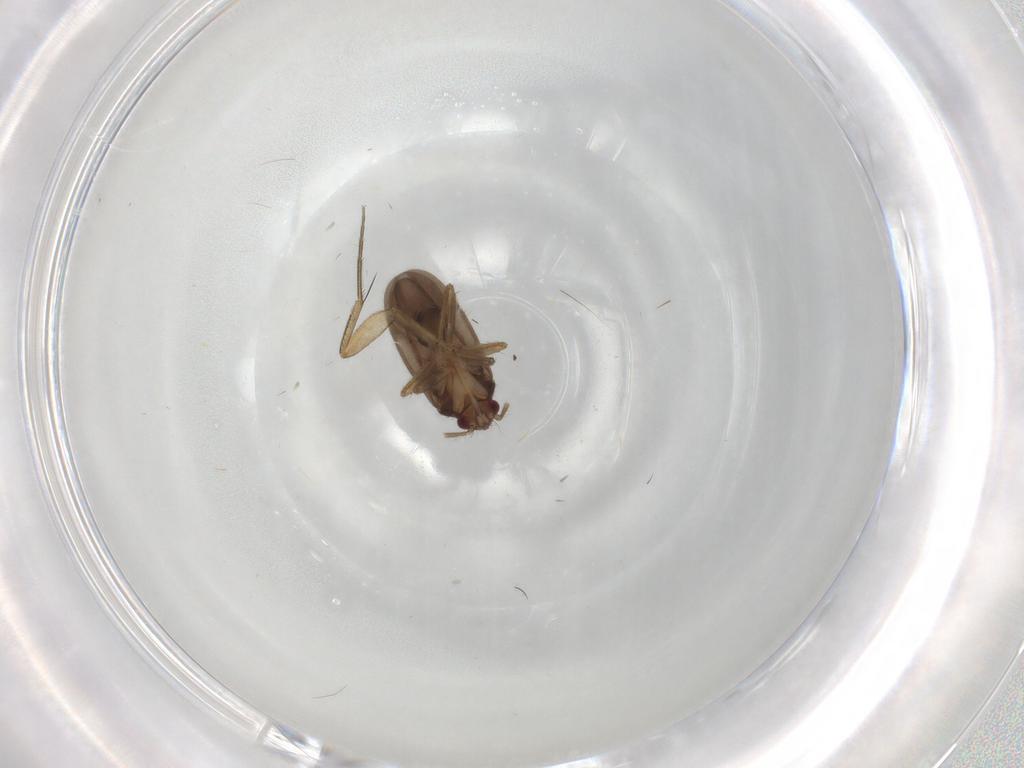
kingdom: Animalia
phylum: Arthropoda
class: Insecta
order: Hemiptera
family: Ceratocombidae
